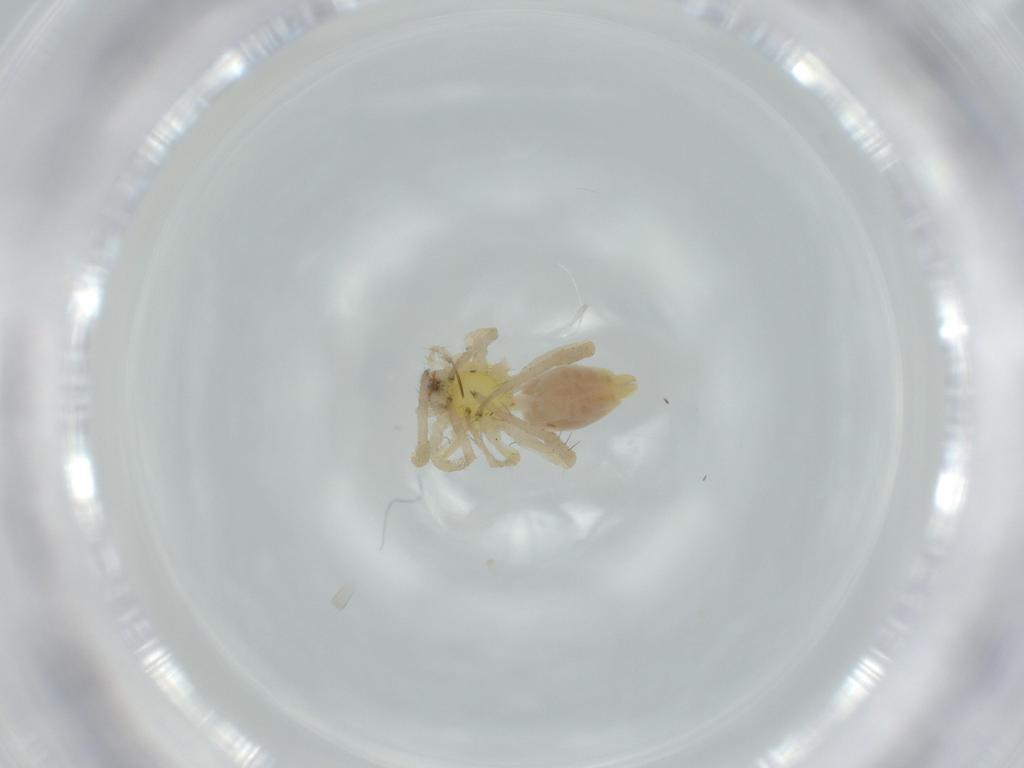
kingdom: Animalia
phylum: Arthropoda
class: Arachnida
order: Araneae
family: Anyphaenidae
